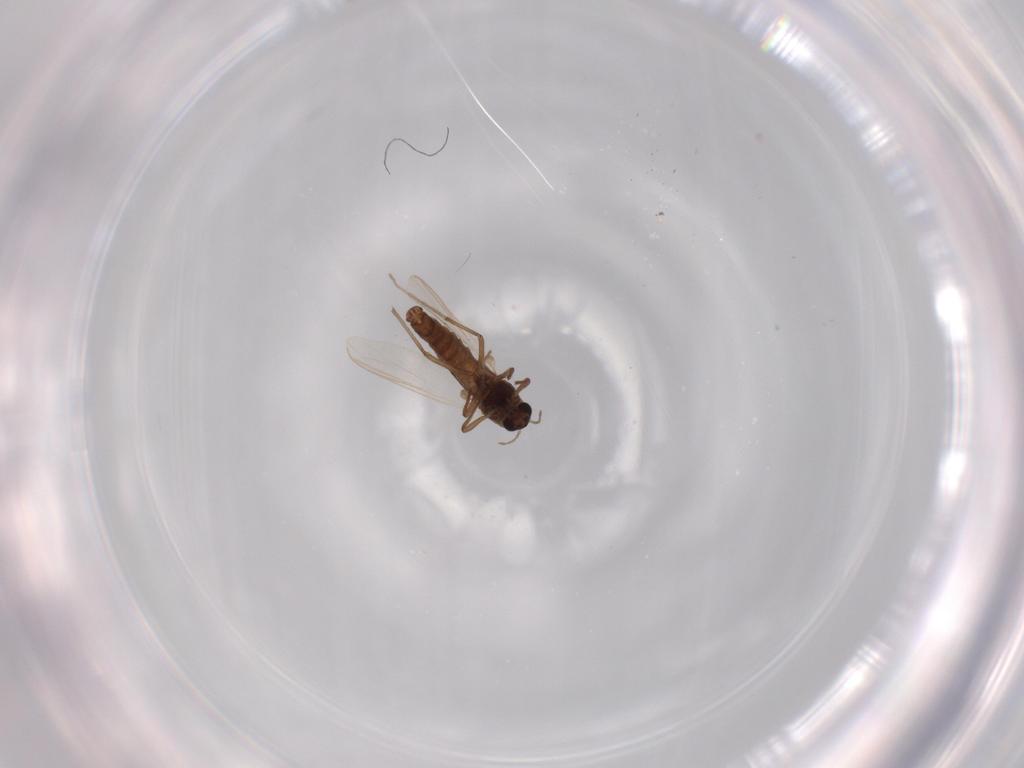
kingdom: Animalia
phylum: Arthropoda
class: Insecta
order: Diptera
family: Chironomidae
